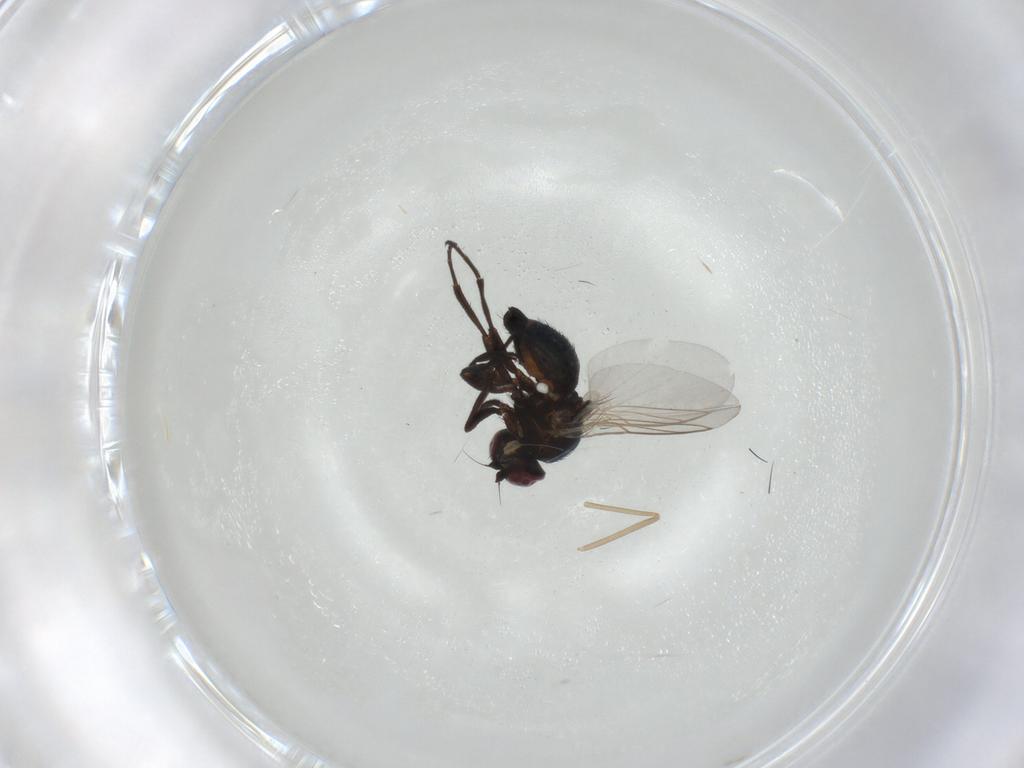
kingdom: Animalia
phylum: Arthropoda
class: Insecta
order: Diptera
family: Cecidomyiidae
